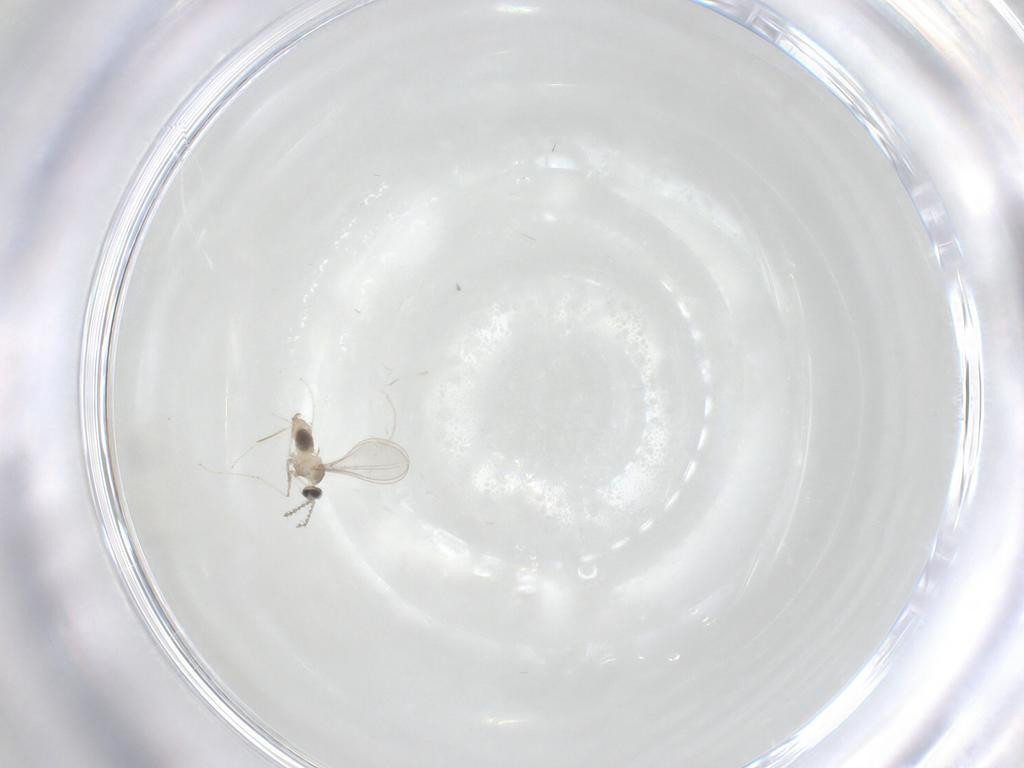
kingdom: Animalia
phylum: Arthropoda
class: Insecta
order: Diptera
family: Cecidomyiidae
